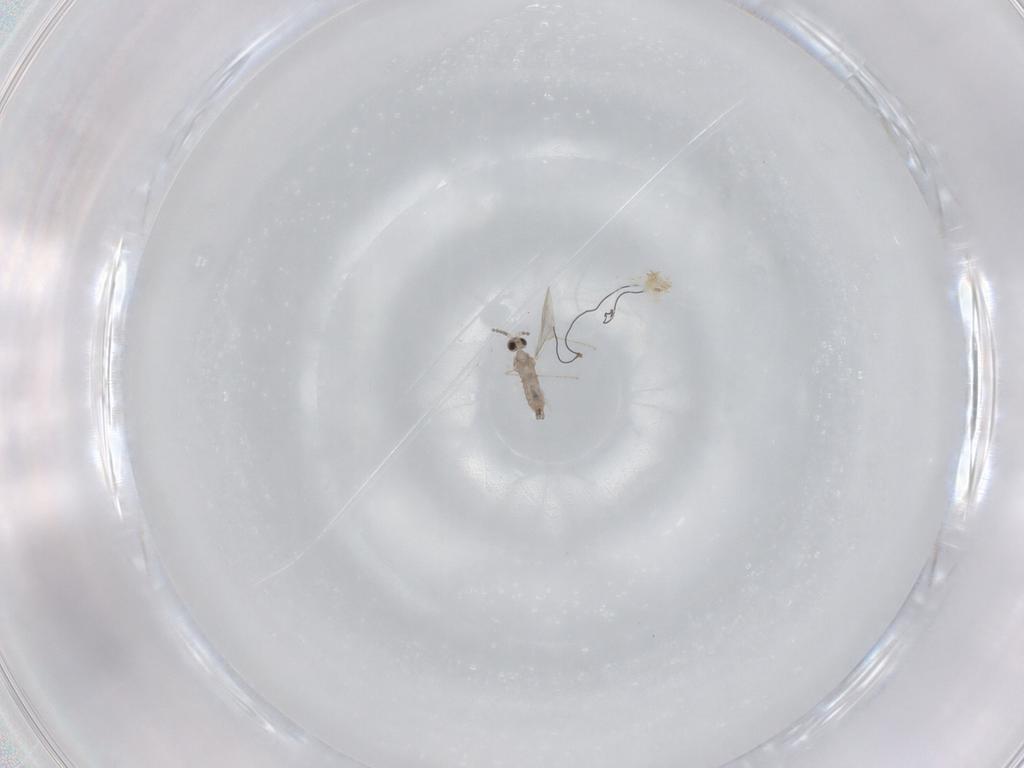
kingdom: Animalia
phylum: Arthropoda
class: Insecta
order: Diptera
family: Cecidomyiidae
